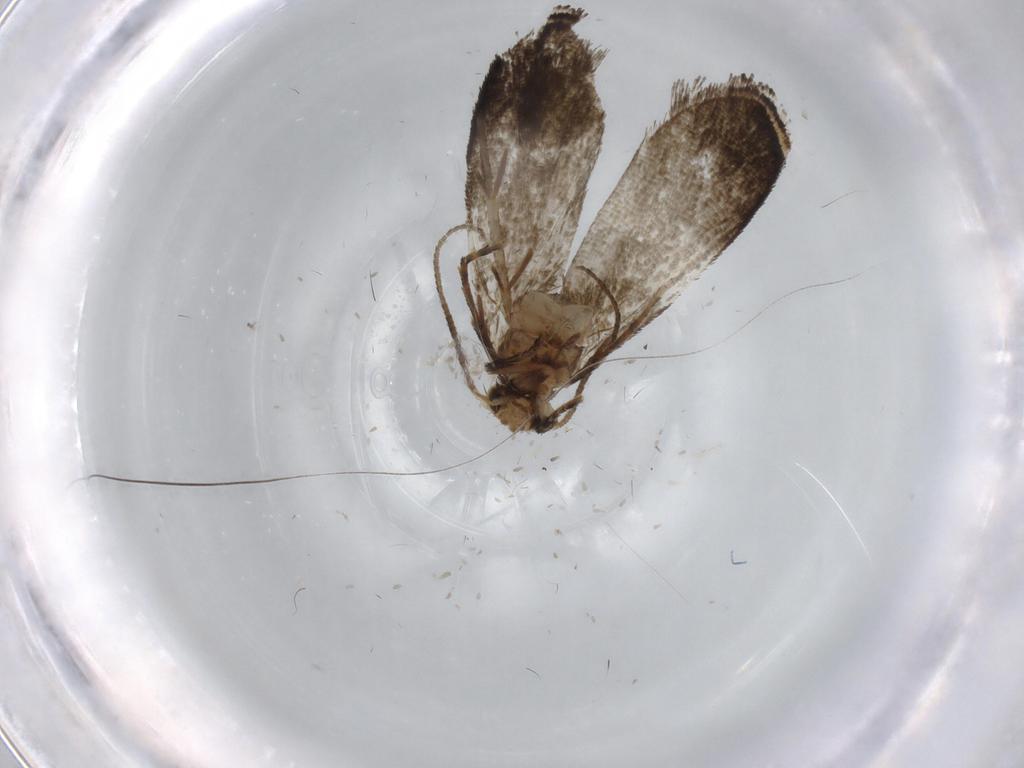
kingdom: Animalia
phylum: Arthropoda
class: Insecta
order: Lepidoptera
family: Tineidae
